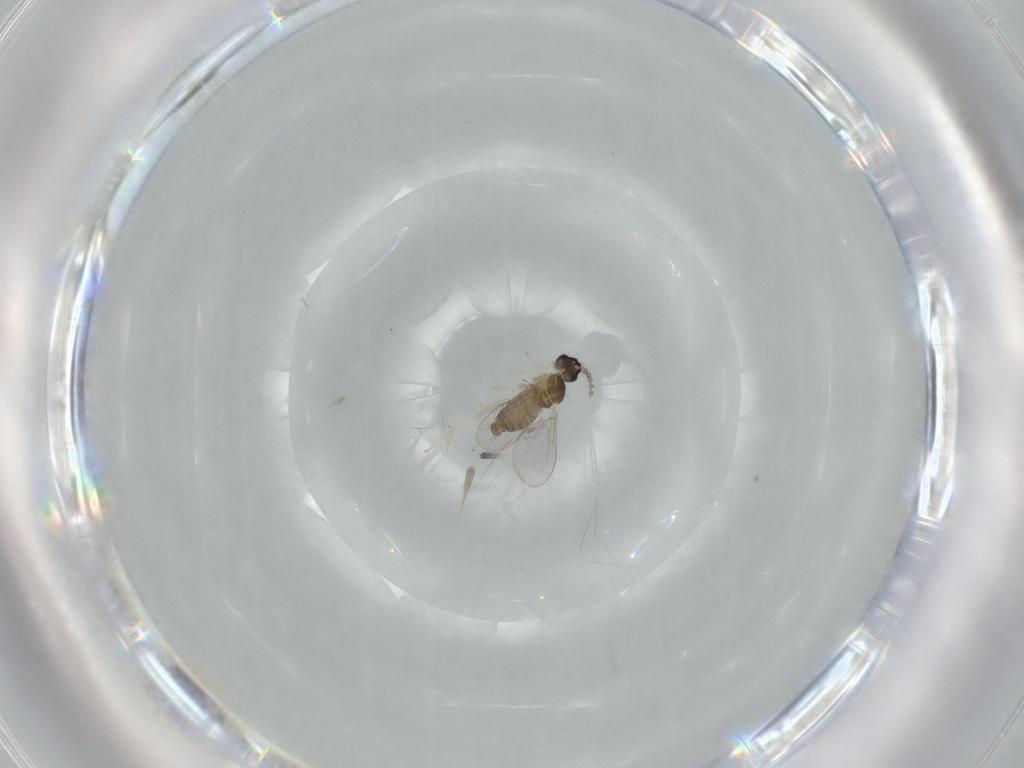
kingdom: Animalia
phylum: Arthropoda
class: Insecta
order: Diptera
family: Cecidomyiidae
